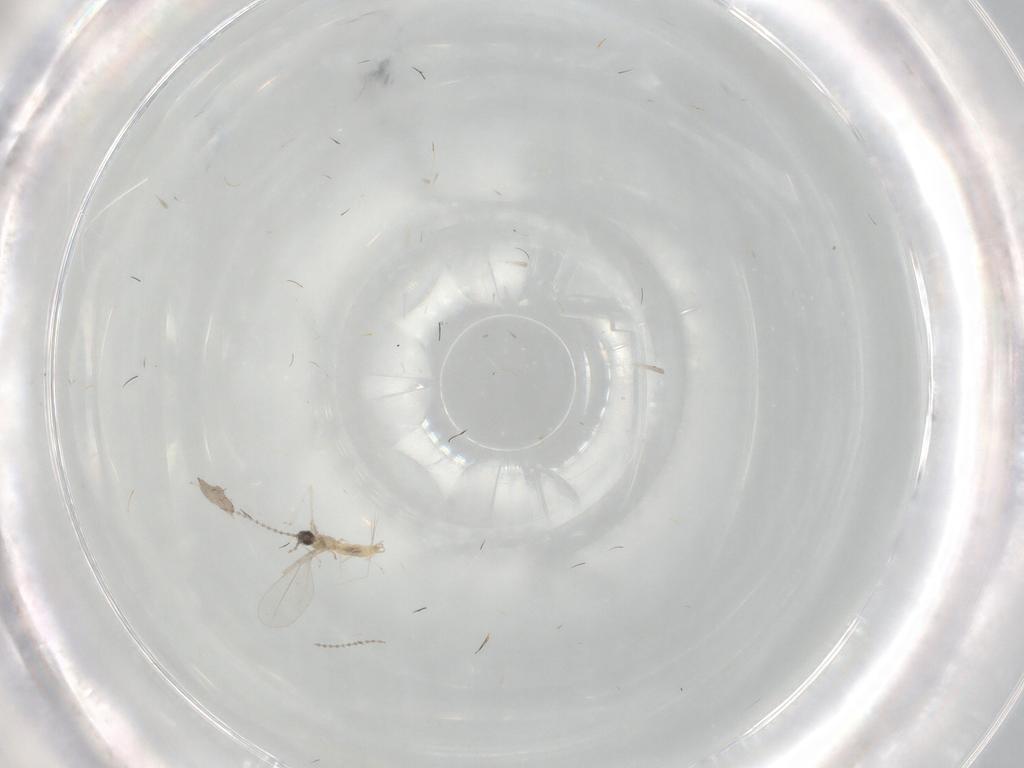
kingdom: Animalia
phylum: Arthropoda
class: Insecta
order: Diptera
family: Cecidomyiidae
